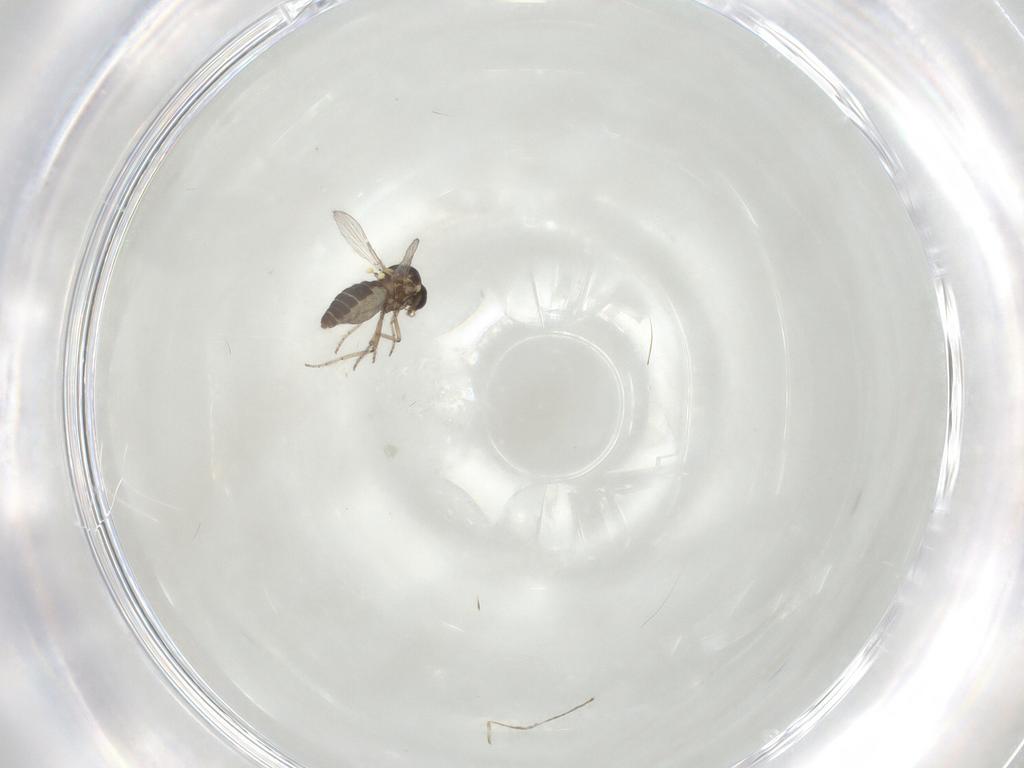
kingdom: Animalia
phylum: Arthropoda
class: Insecta
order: Diptera
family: Ceratopogonidae
